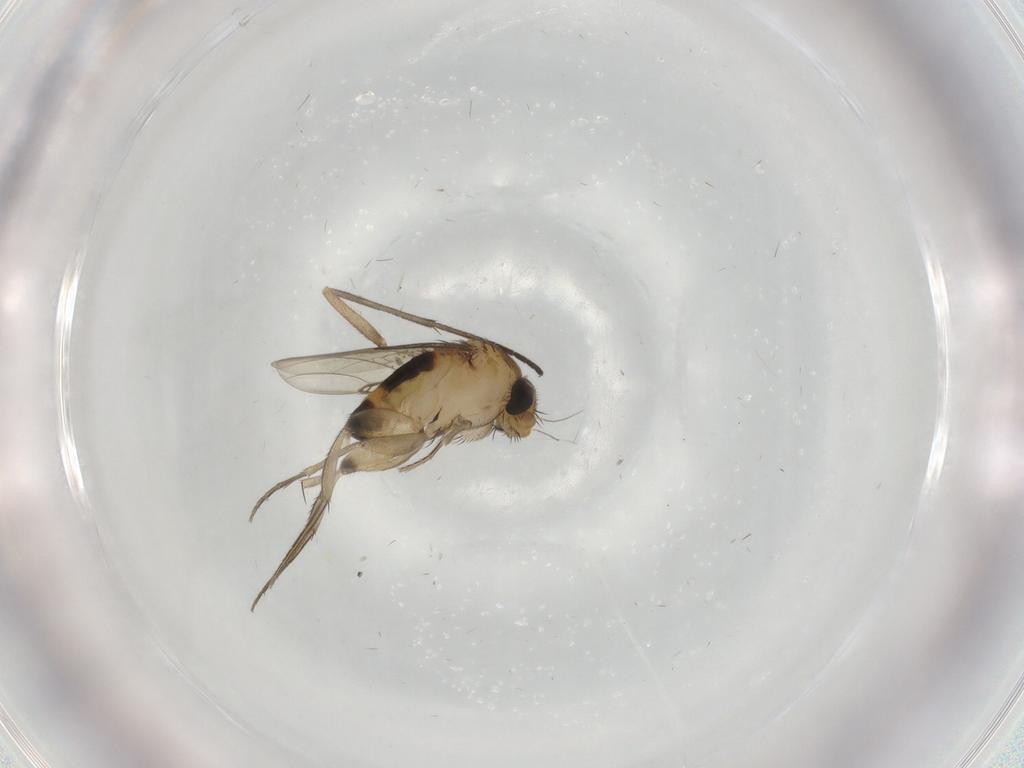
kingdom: Animalia
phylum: Arthropoda
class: Insecta
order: Diptera
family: Phoridae
